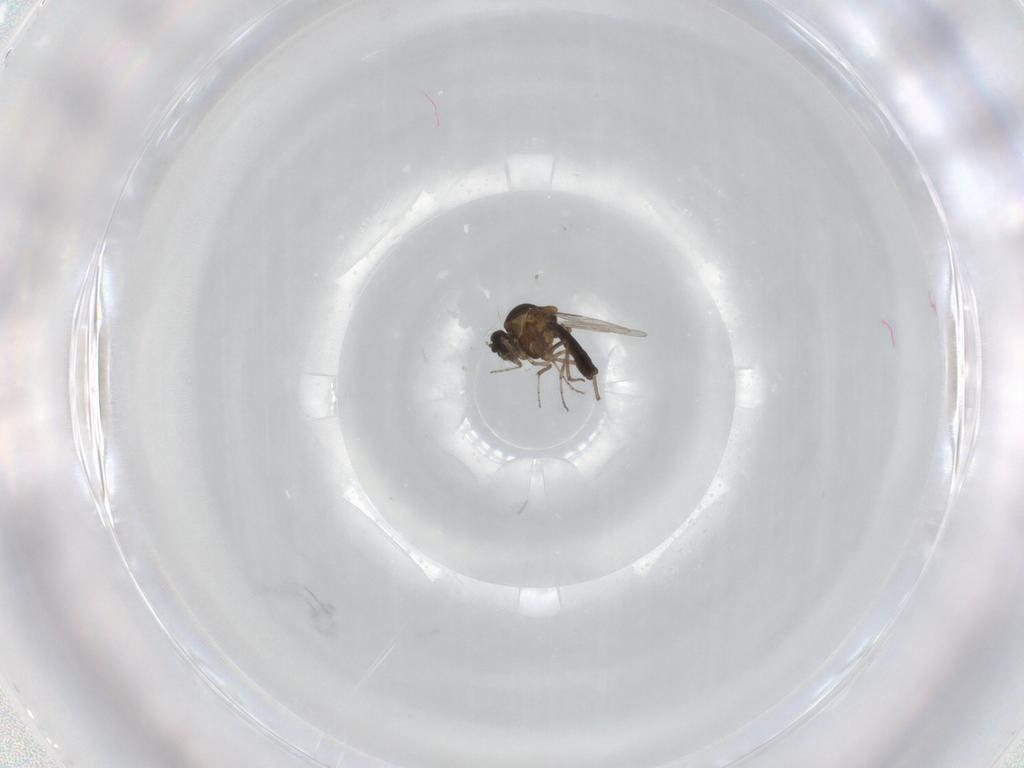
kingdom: Animalia
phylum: Arthropoda
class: Insecta
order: Diptera
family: Ceratopogonidae
